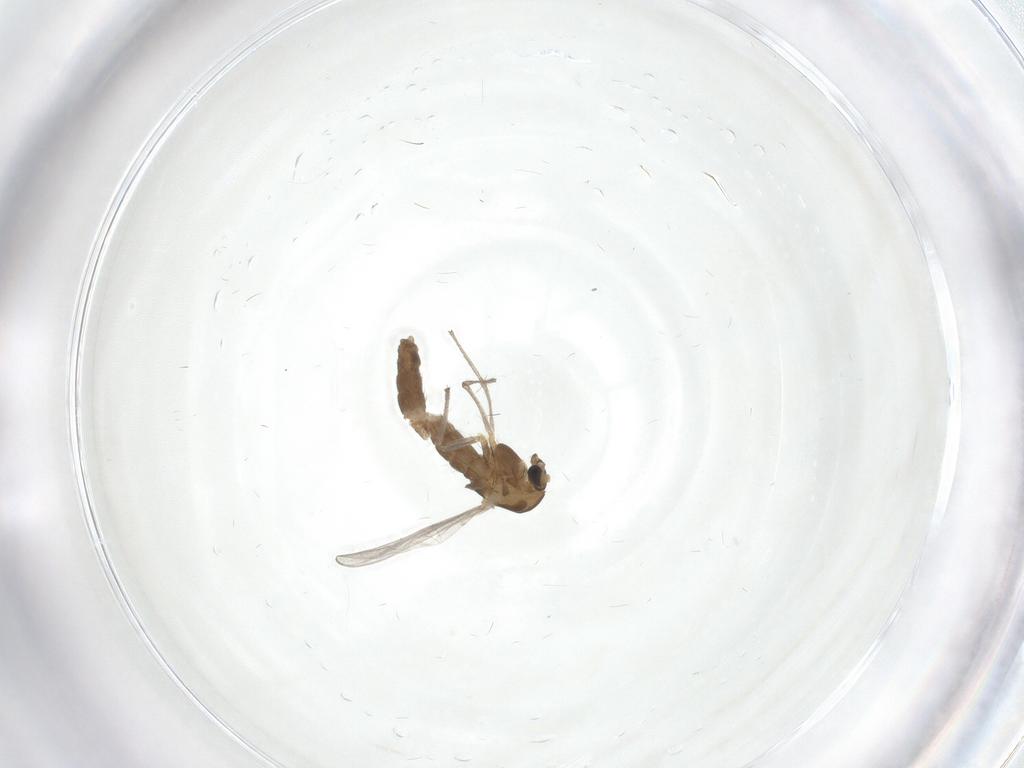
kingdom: Animalia
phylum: Arthropoda
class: Insecta
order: Diptera
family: Chironomidae
